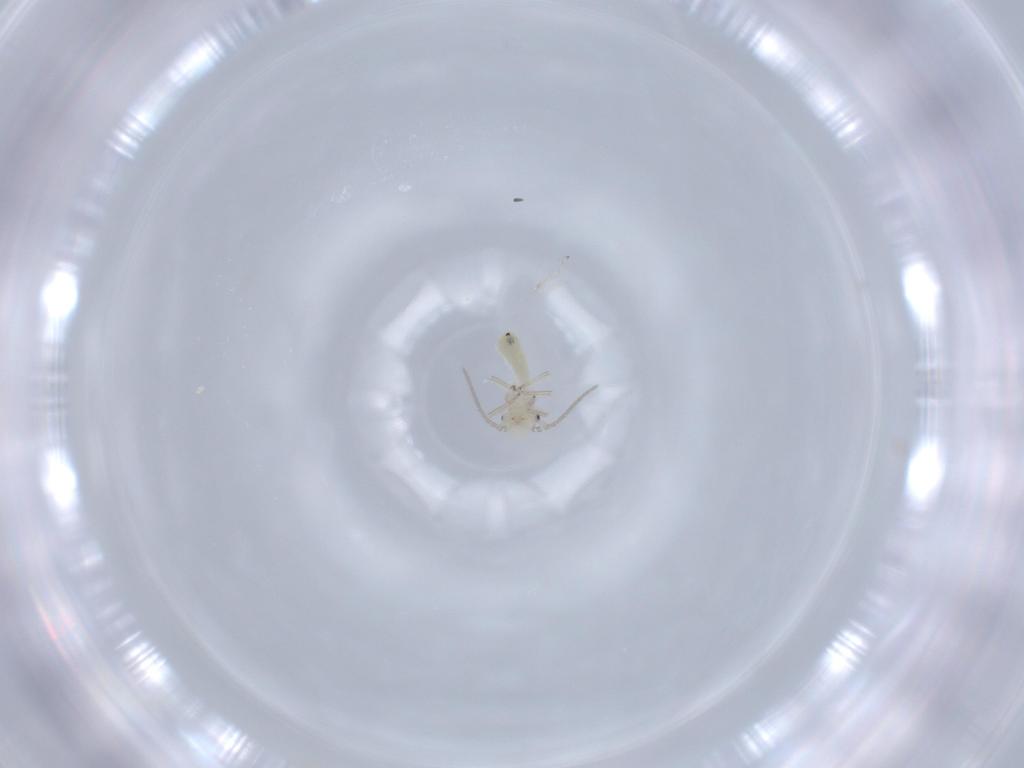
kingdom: Animalia
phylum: Arthropoda
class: Insecta
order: Psocodea
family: Caeciliusidae
